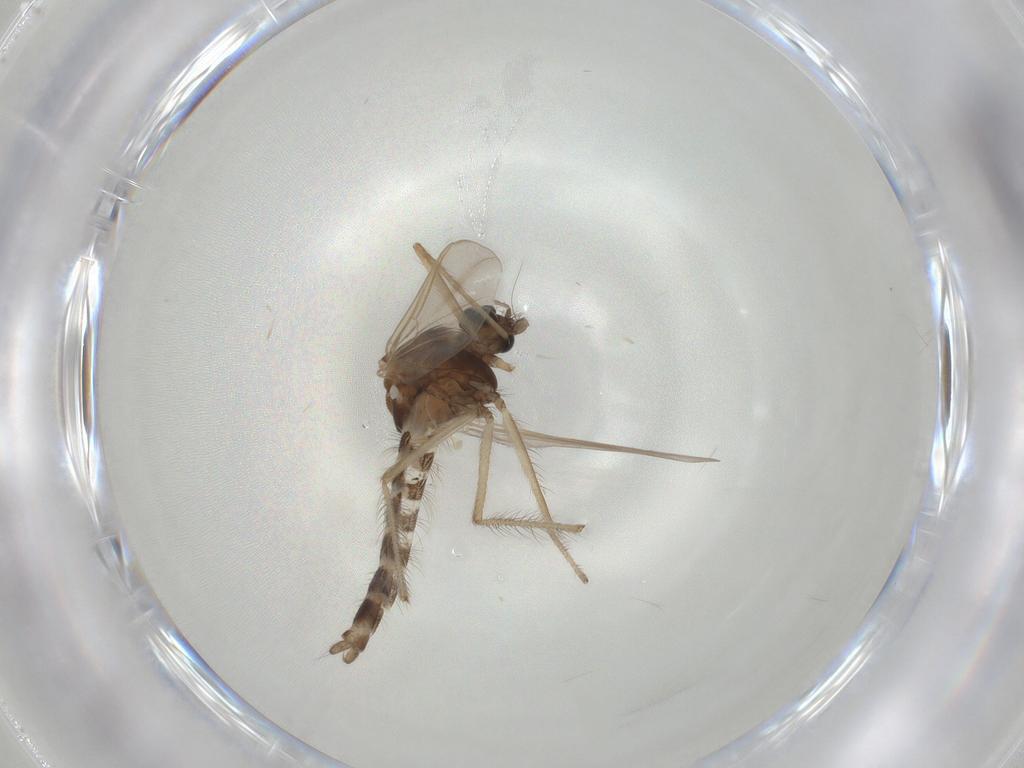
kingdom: Animalia
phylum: Arthropoda
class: Insecta
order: Diptera
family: Chironomidae
